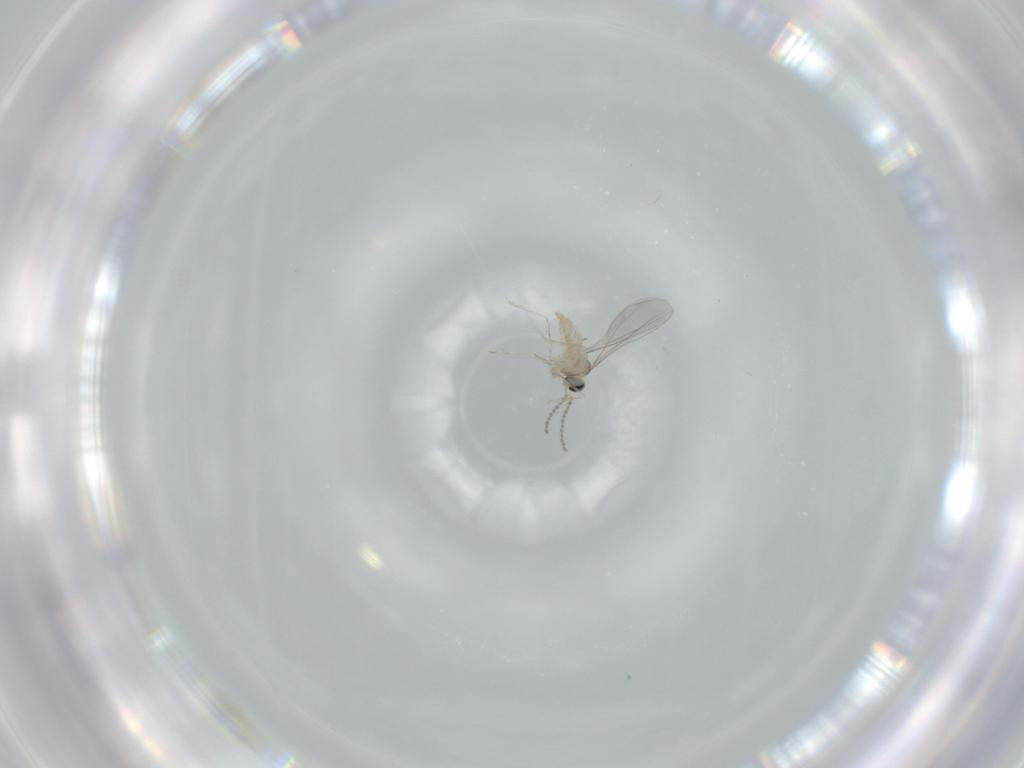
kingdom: Animalia
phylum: Arthropoda
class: Insecta
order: Diptera
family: Cecidomyiidae
